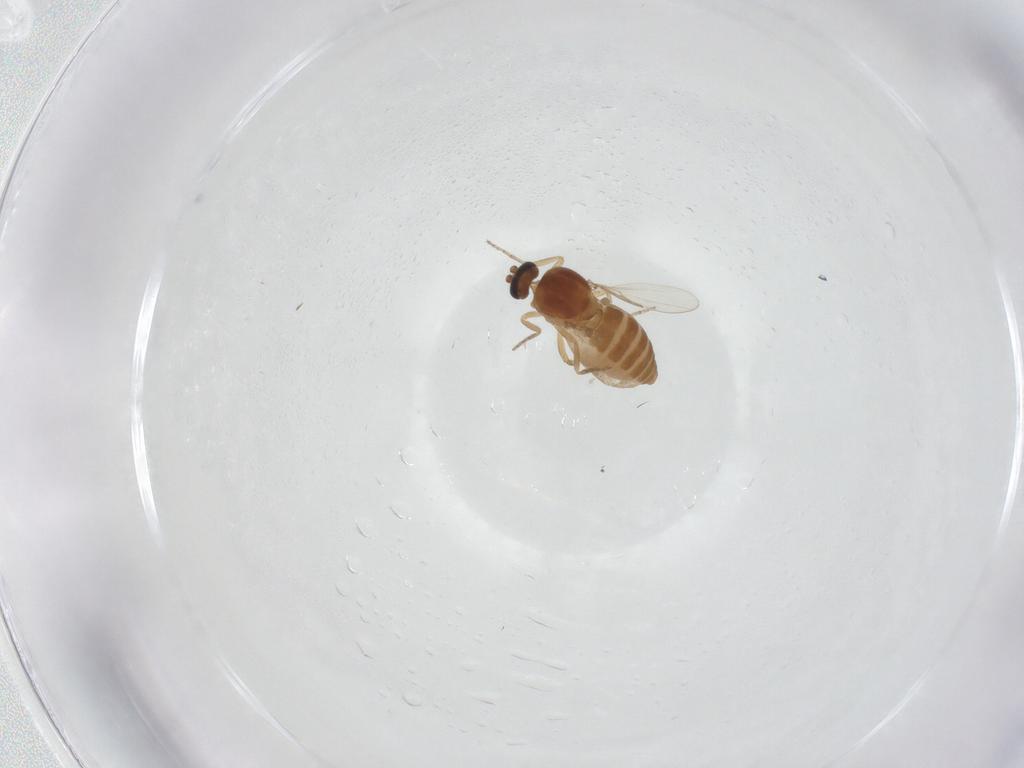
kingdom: Animalia
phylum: Arthropoda
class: Insecta
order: Diptera
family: Ceratopogonidae
